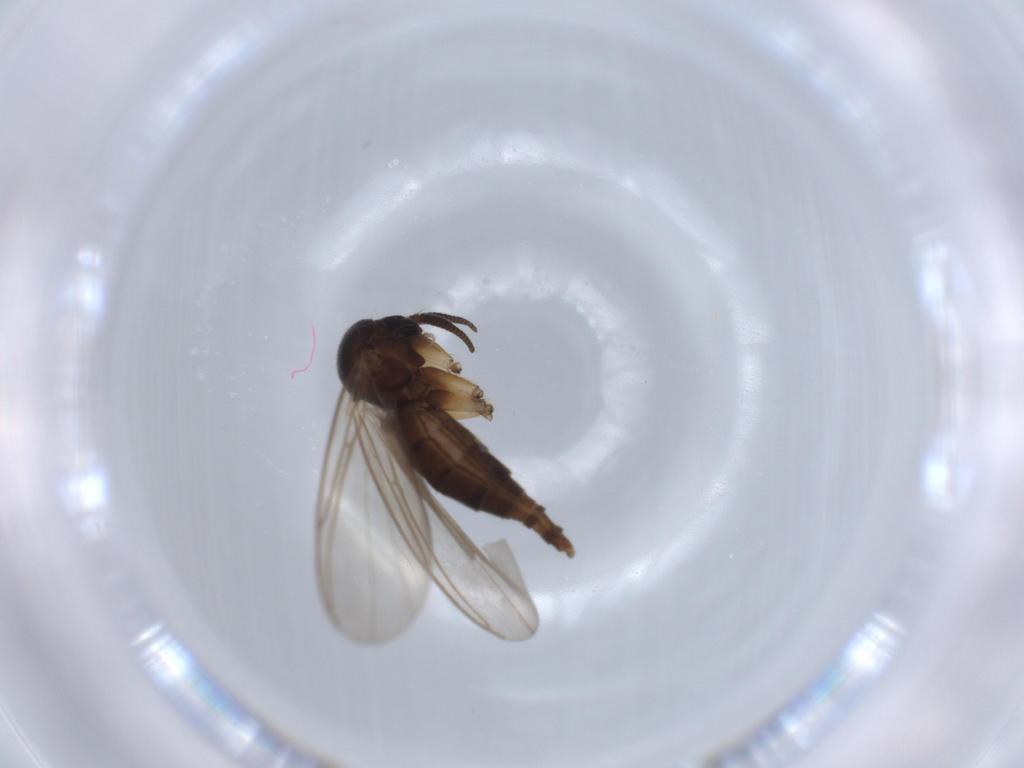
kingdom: Animalia
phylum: Arthropoda
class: Insecta
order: Diptera
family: Mycetophilidae
